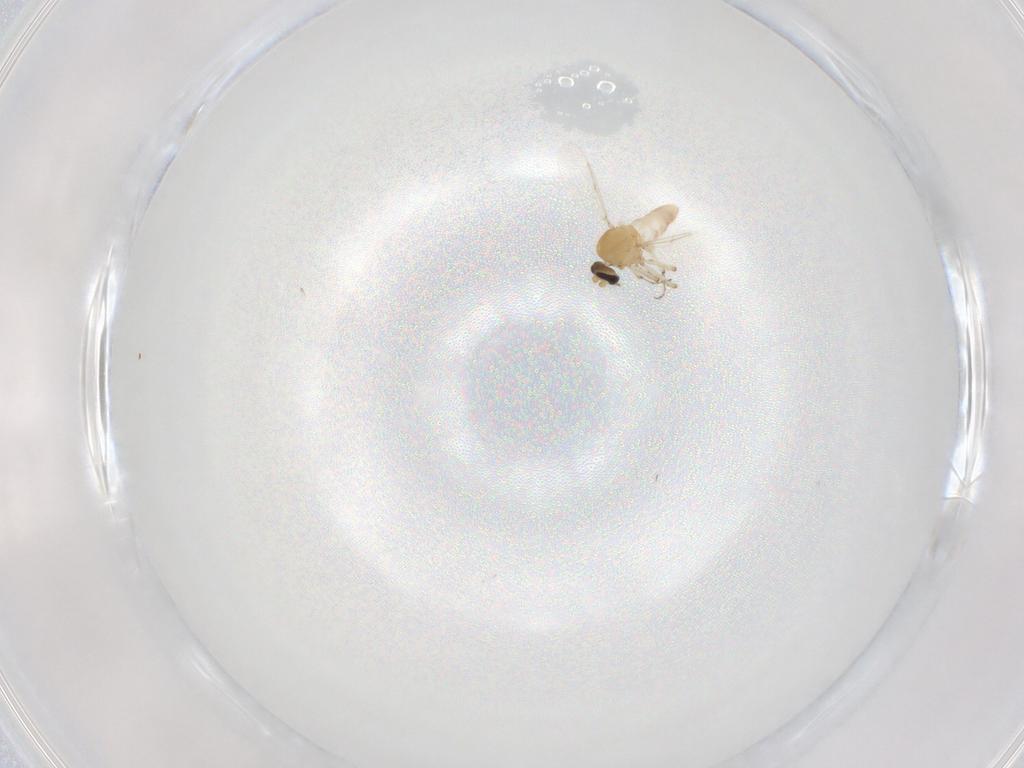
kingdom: Animalia
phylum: Arthropoda
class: Insecta
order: Diptera
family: Ceratopogonidae
